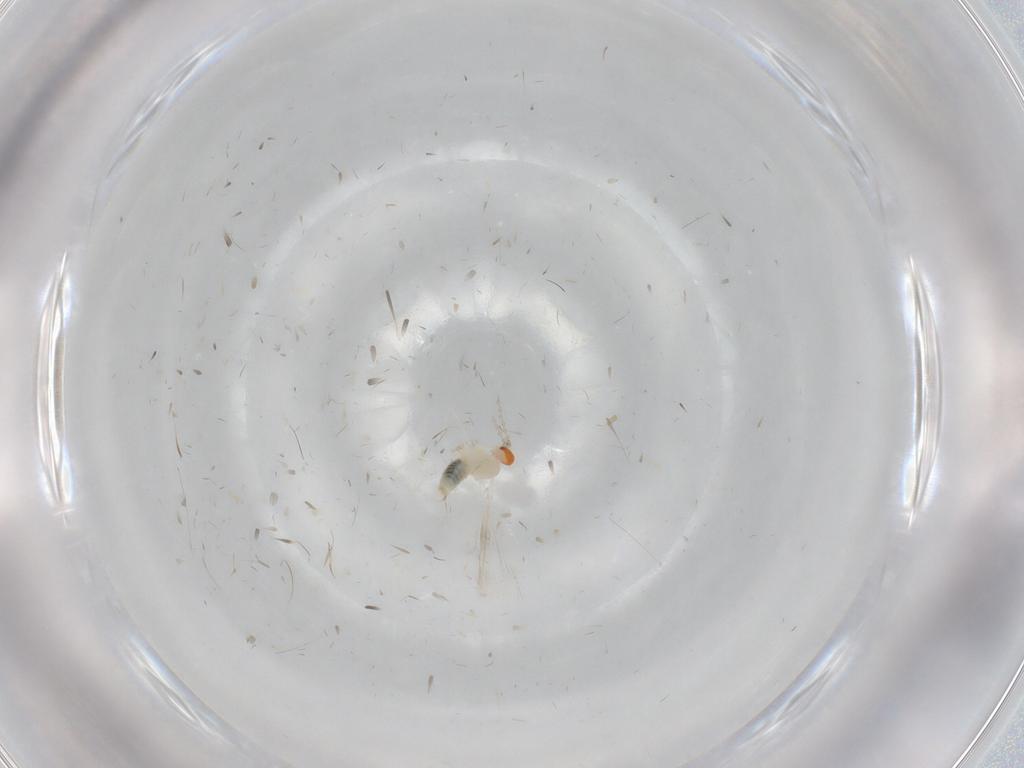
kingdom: Animalia
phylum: Arthropoda
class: Insecta
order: Diptera
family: Cecidomyiidae
